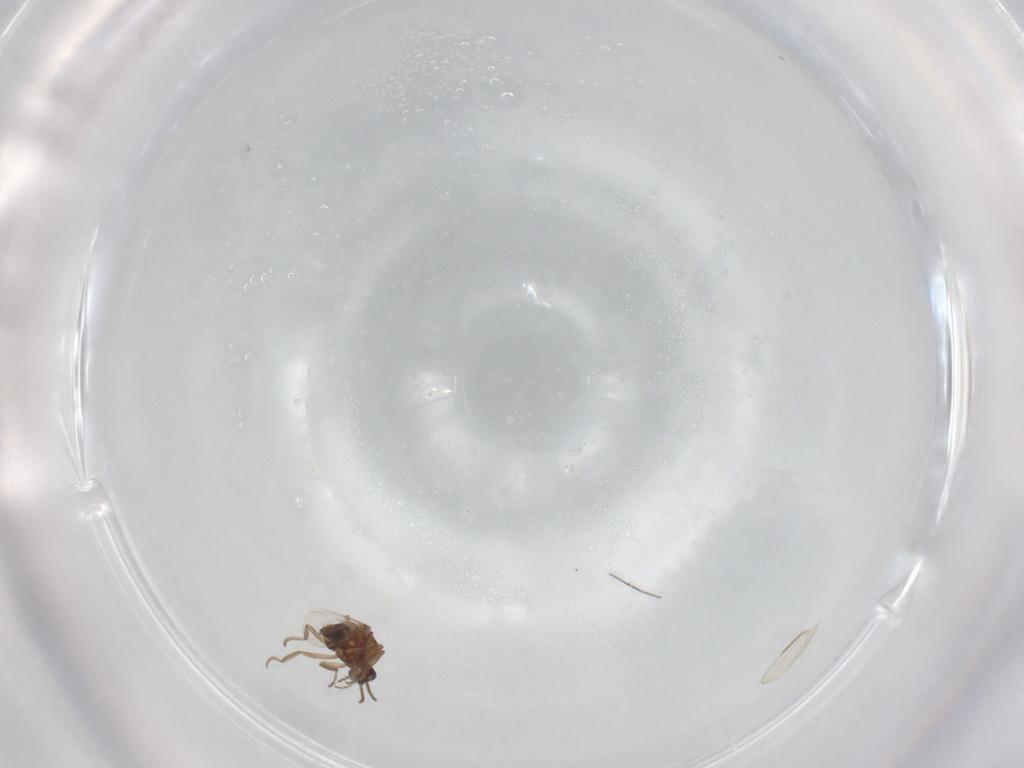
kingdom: Animalia
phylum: Arthropoda
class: Insecta
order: Diptera
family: Ceratopogonidae
